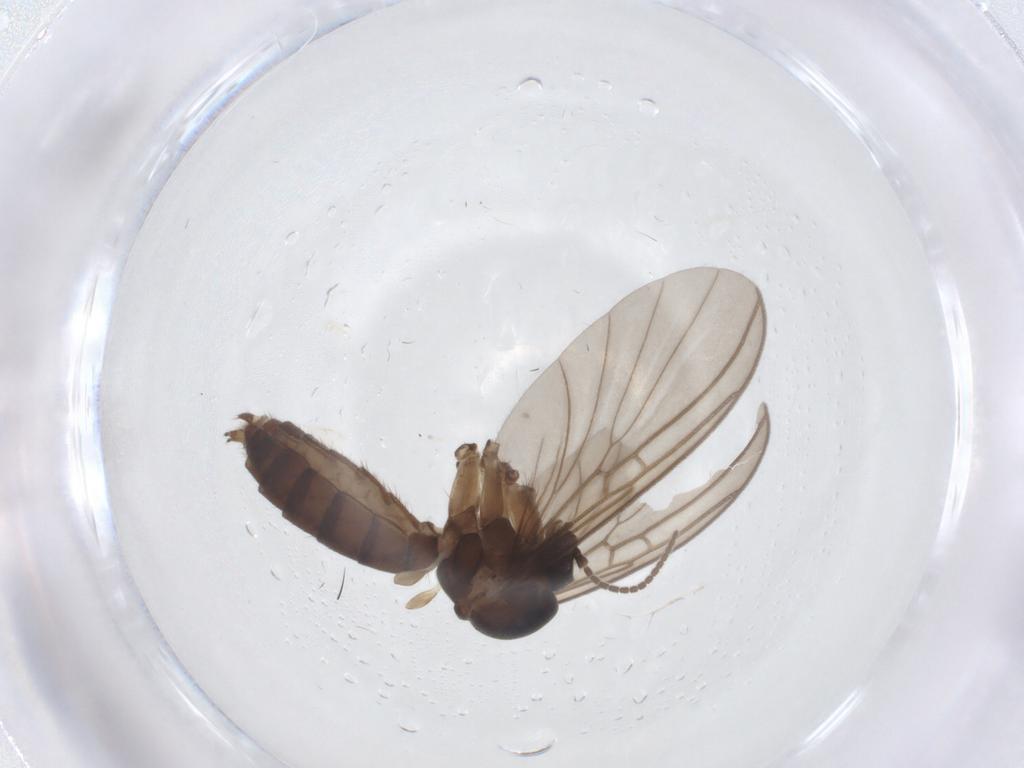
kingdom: Animalia
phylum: Arthropoda
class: Insecta
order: Diptera
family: Mycetophilidae
